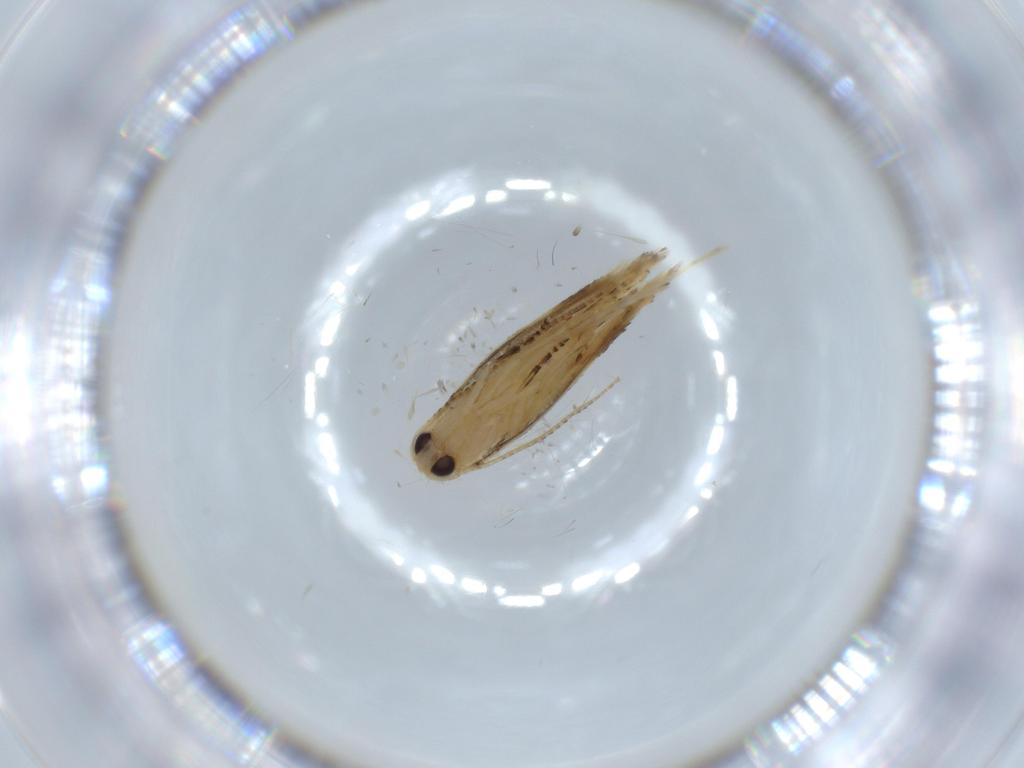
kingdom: Animalia
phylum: Arthropoda
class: Insecta
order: Lepidoptera
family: Bucculatricidae
